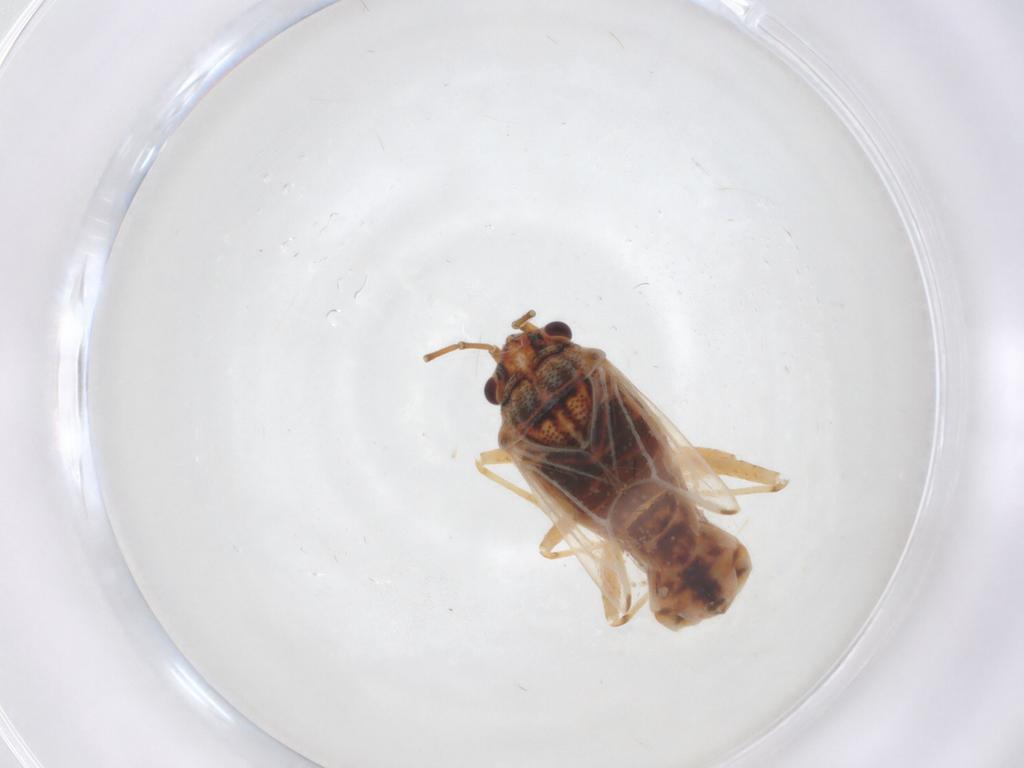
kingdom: Animalia
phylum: Arthropoda
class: Insecta
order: Hemiptera
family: Lygaeidae
